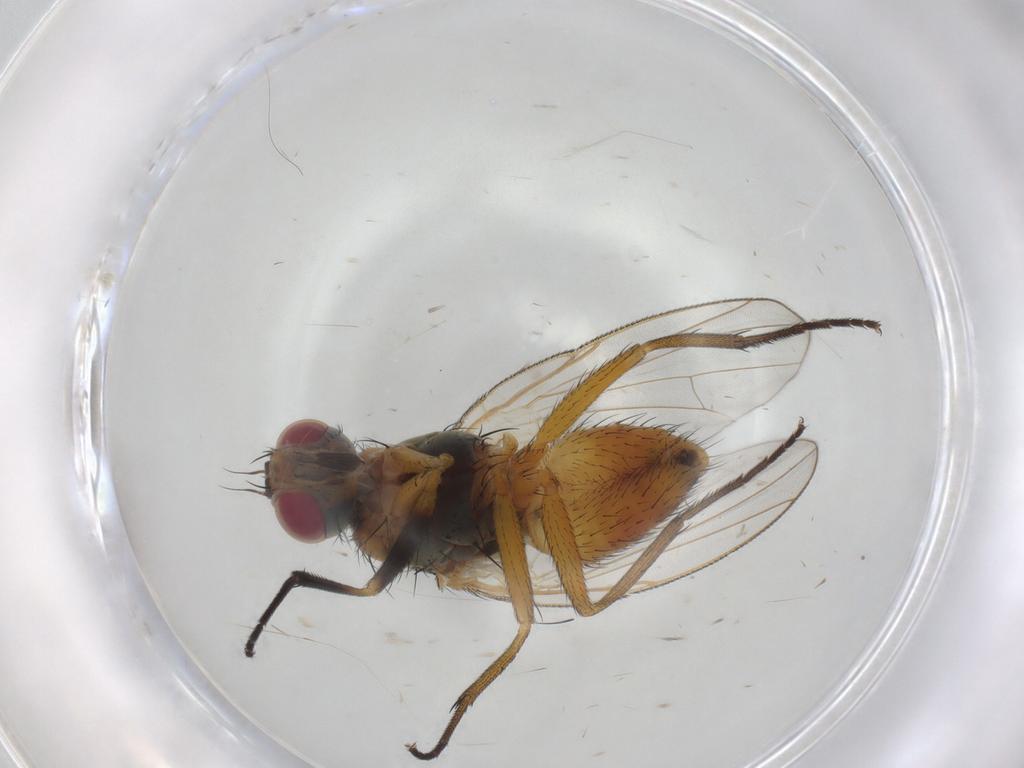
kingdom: Animalia
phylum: Arthropoda
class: Insecta
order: Diptera
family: Muscidae
